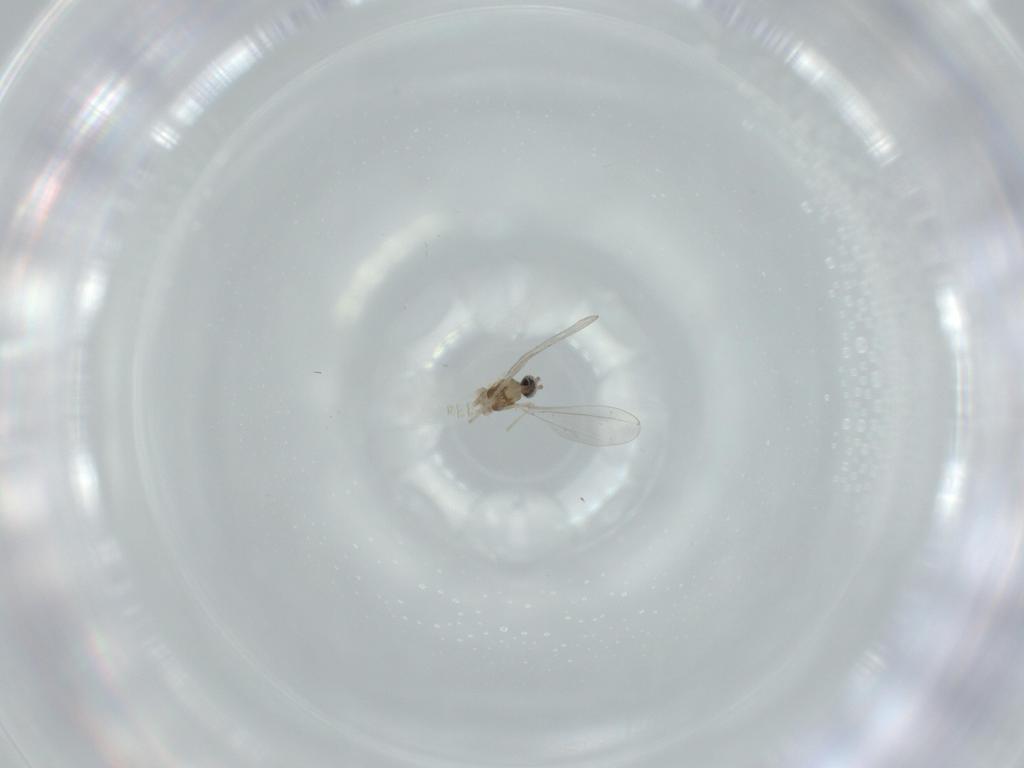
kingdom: Animalia
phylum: Arthropoda
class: Insecta
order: Diptera
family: Cecidomyiidae
